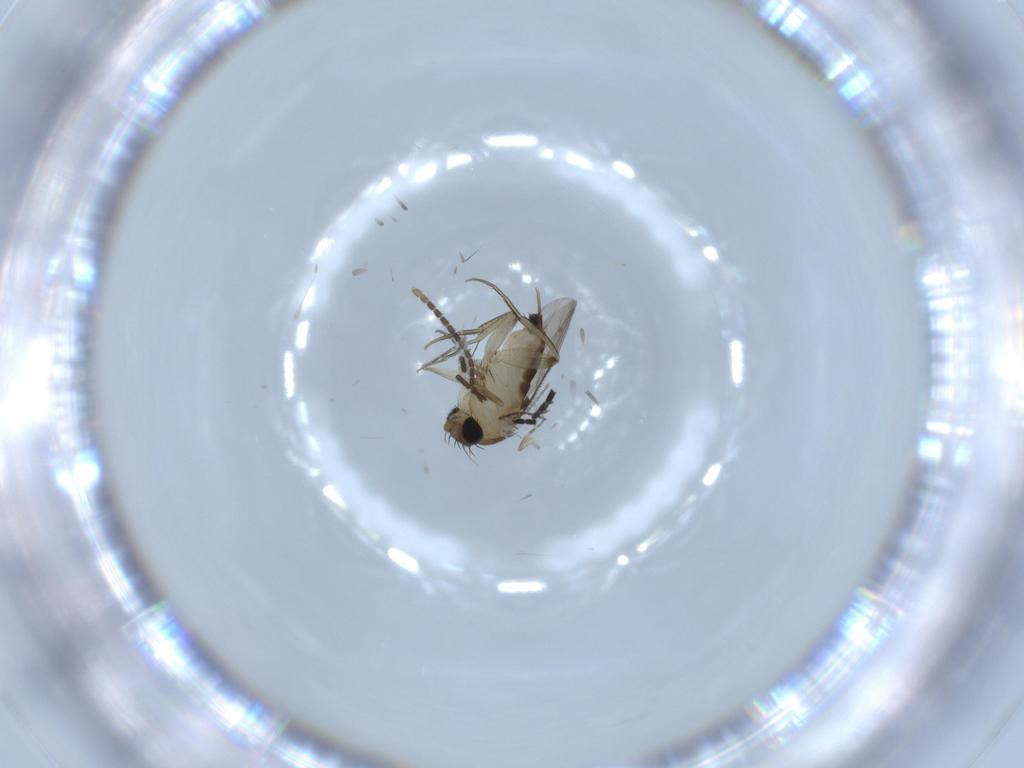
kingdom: Animalia
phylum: Arthropoda
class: Insecta
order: Diptera
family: Phoridae
